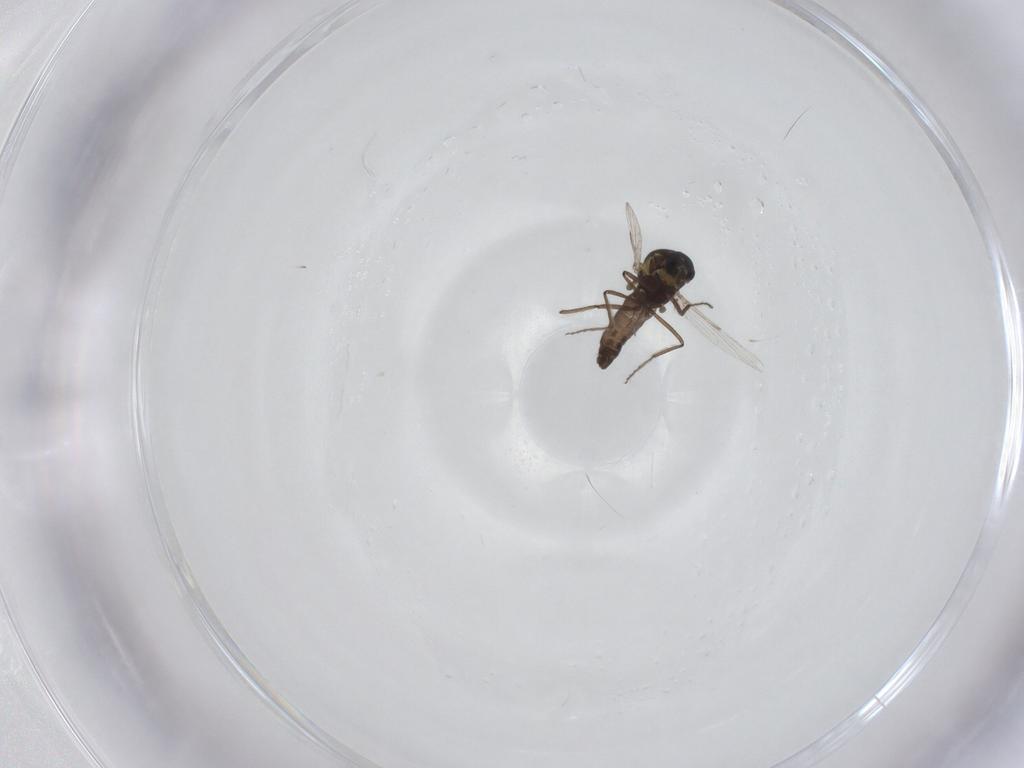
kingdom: Animalia
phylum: Arthropoda
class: Insecta
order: Diptera
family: Ceratopogonidae
